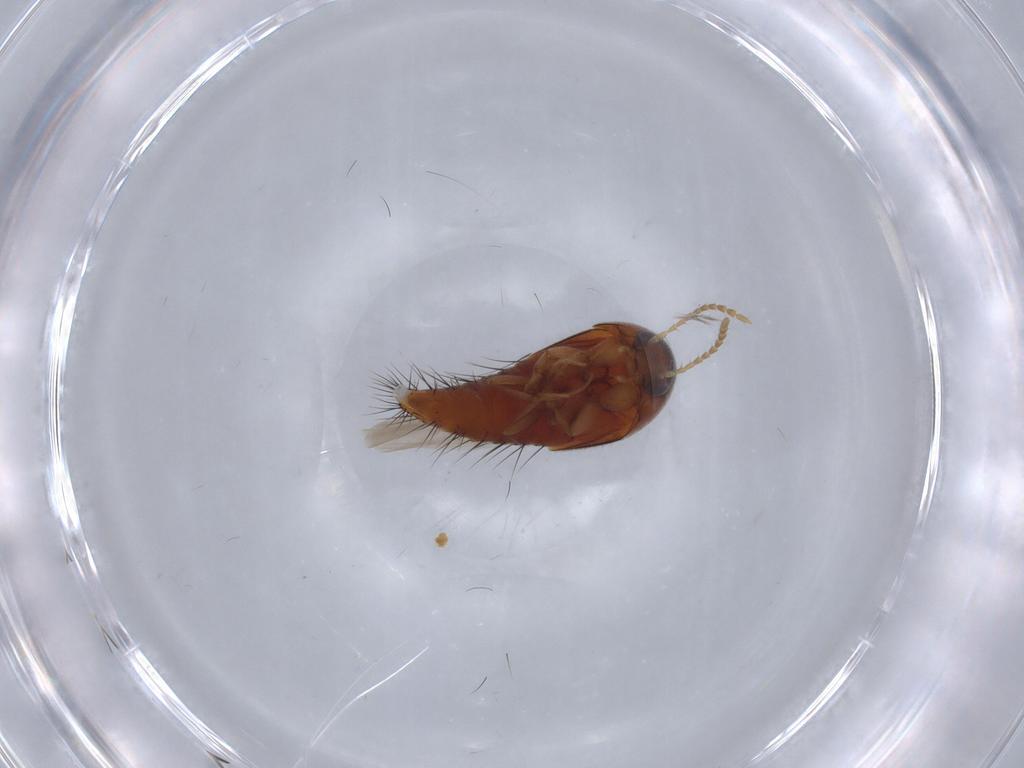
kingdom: Animalia
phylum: Arthropoda
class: Insecta
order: Coleoptera
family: Staphylinidae
